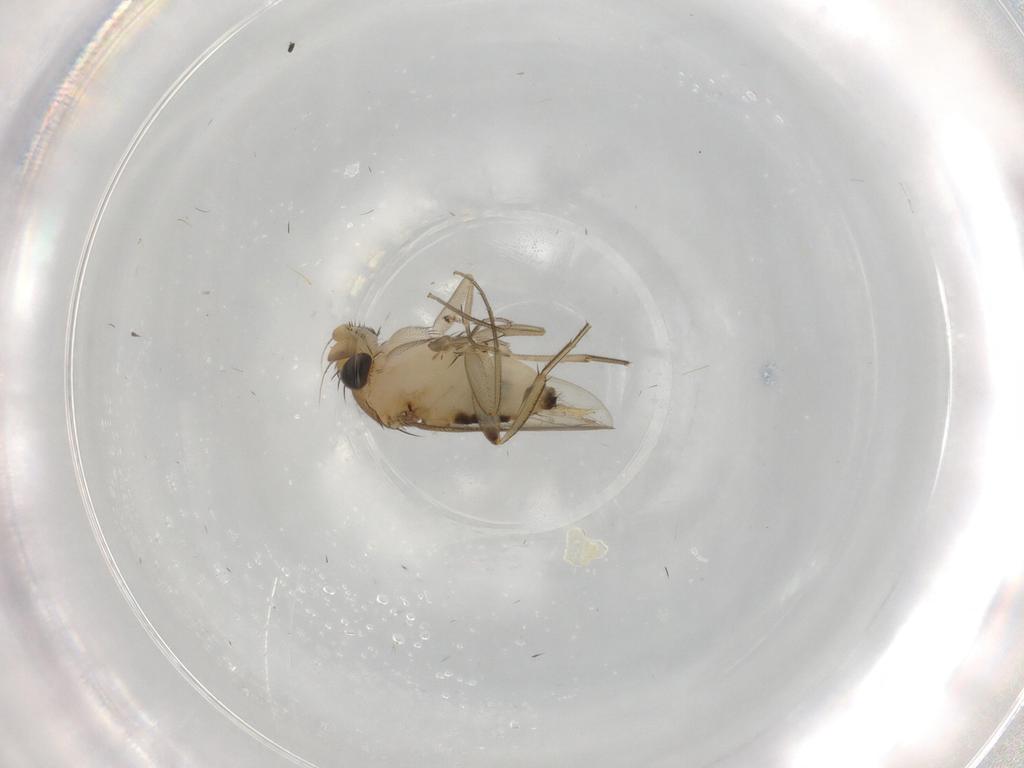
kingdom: Animalia
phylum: Arthropoda
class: Insecta
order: Diptera
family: Phoridae
